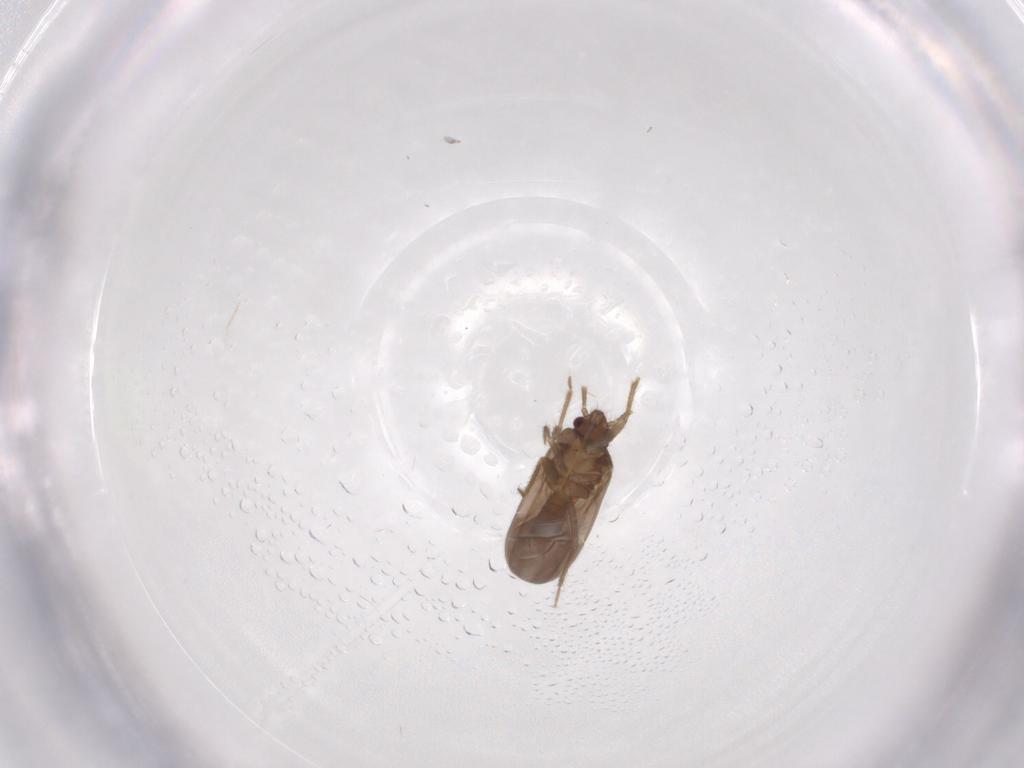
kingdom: Animalia
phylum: Arthropoda
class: Insecta
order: Hemiptera
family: Ceratocombidae
